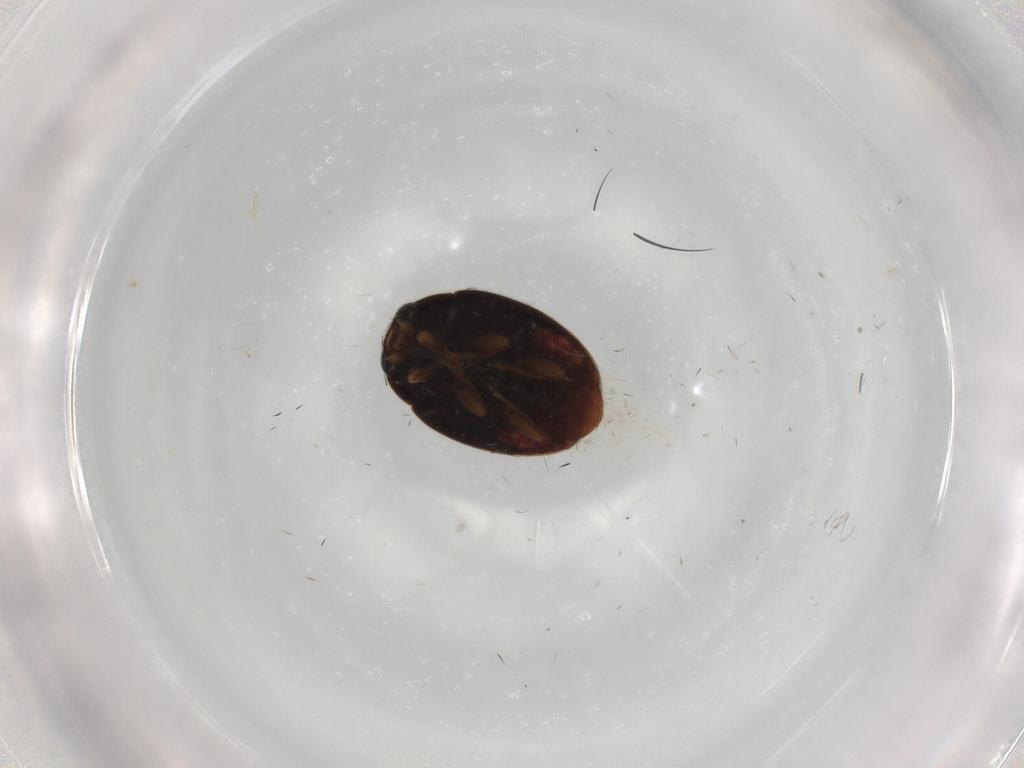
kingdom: Animalia
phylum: Arthropoda
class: Insecta
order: Coleoptera
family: Coccinellidae
